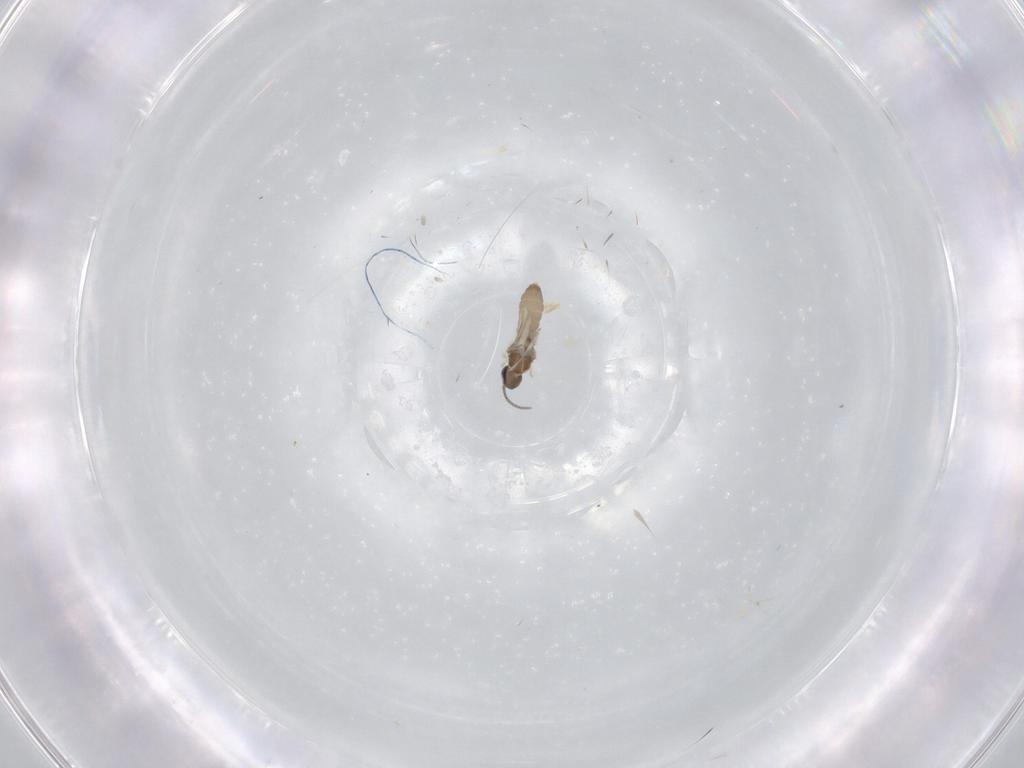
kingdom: Animalia
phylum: Arthropoda
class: Insecta
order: Diptera
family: Cecidomyiidae
